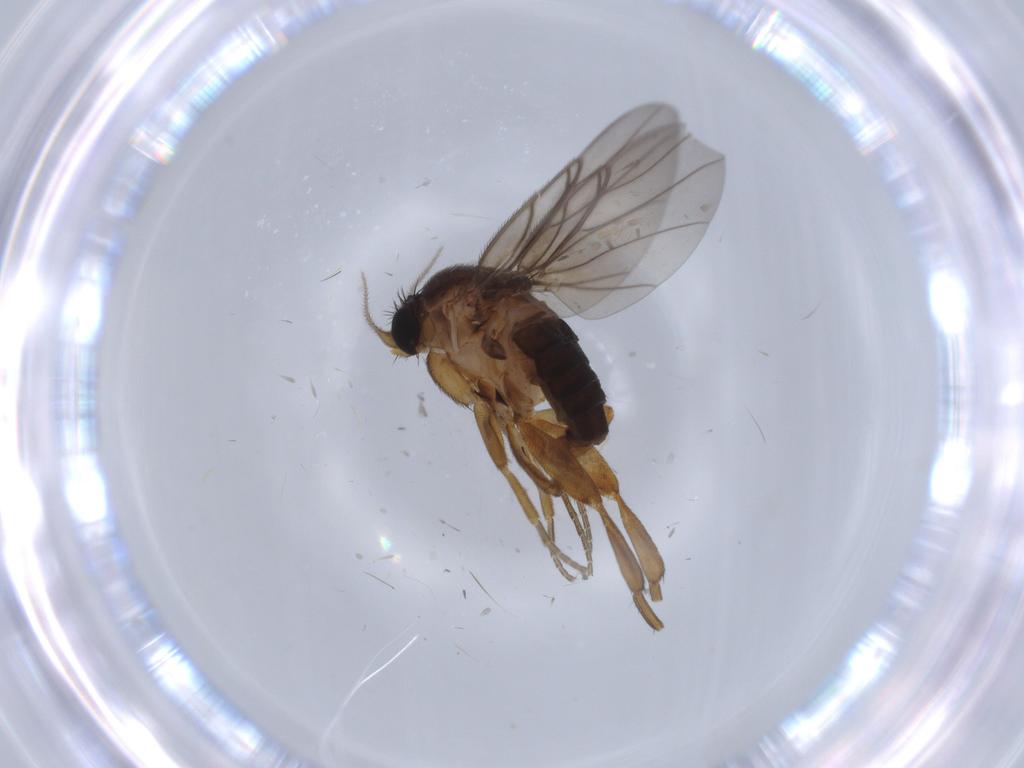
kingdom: Animalia
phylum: Arthropoda
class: Insecta
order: Diptera
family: Phoridae
